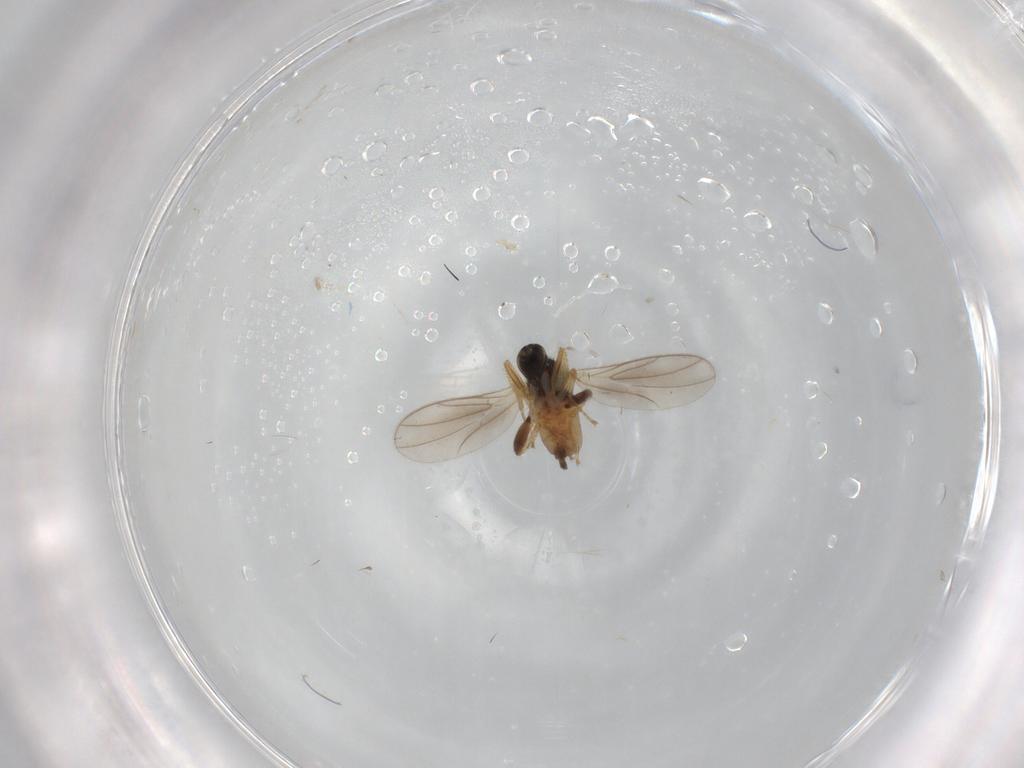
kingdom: Animalia
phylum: Arthropoda
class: Insecta
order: Diptera
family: Hybotidae
